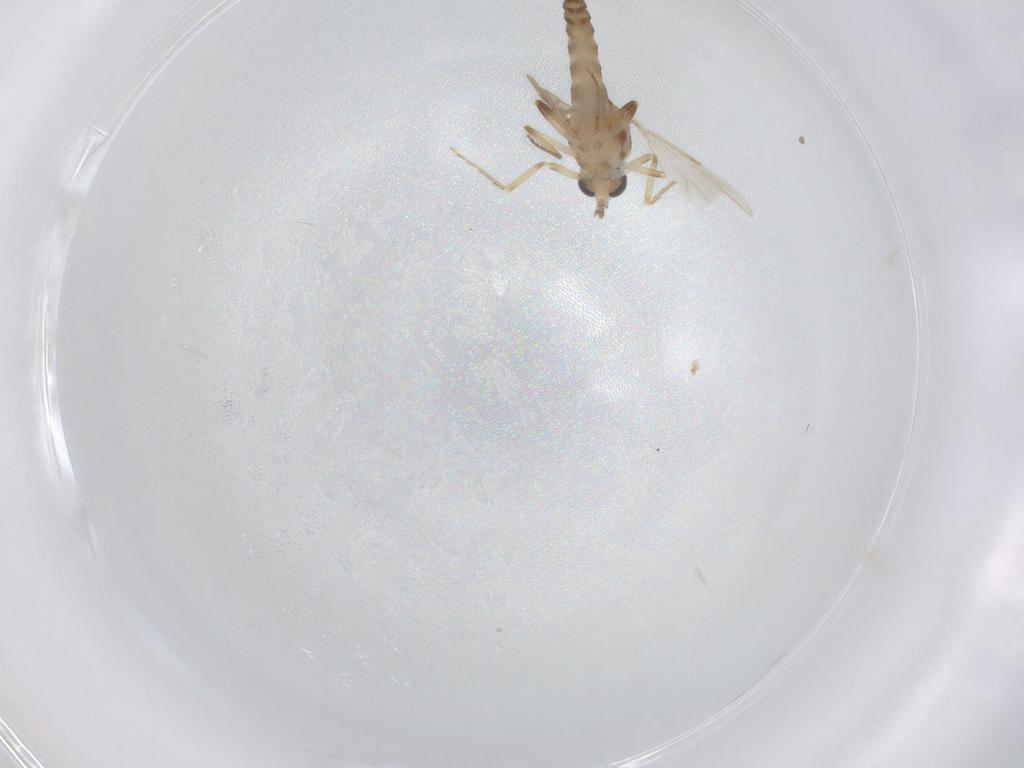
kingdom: Animalia
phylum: Arthropoda
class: Insecta
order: Diptera
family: Ceratopogonidae
